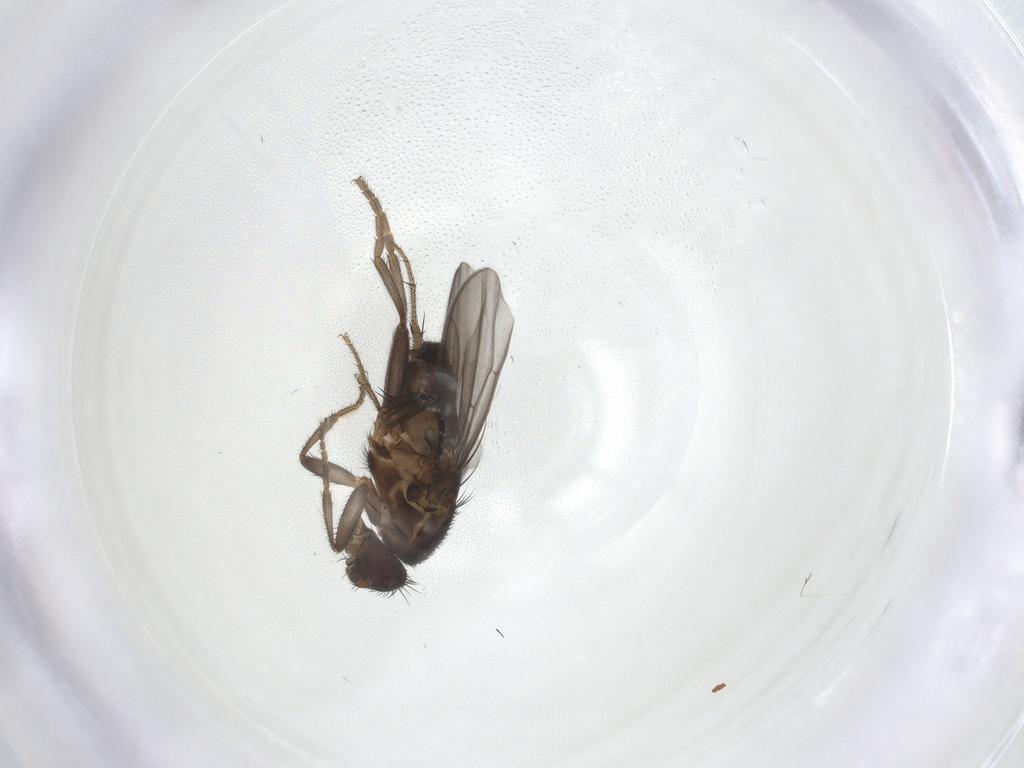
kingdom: Animalia
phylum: Arthropoda
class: Insecta
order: Diptera
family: Sphaeroceridae
